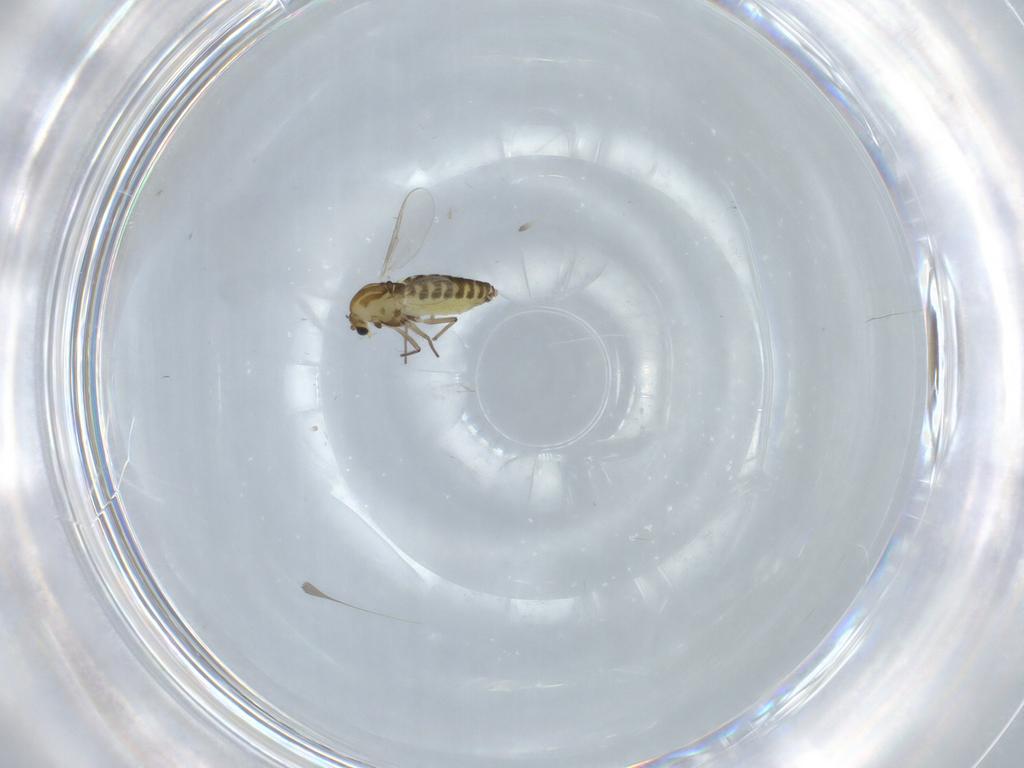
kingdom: Animalia
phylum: Arthropoda
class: Insecta
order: Diptera
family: Chironomidae
